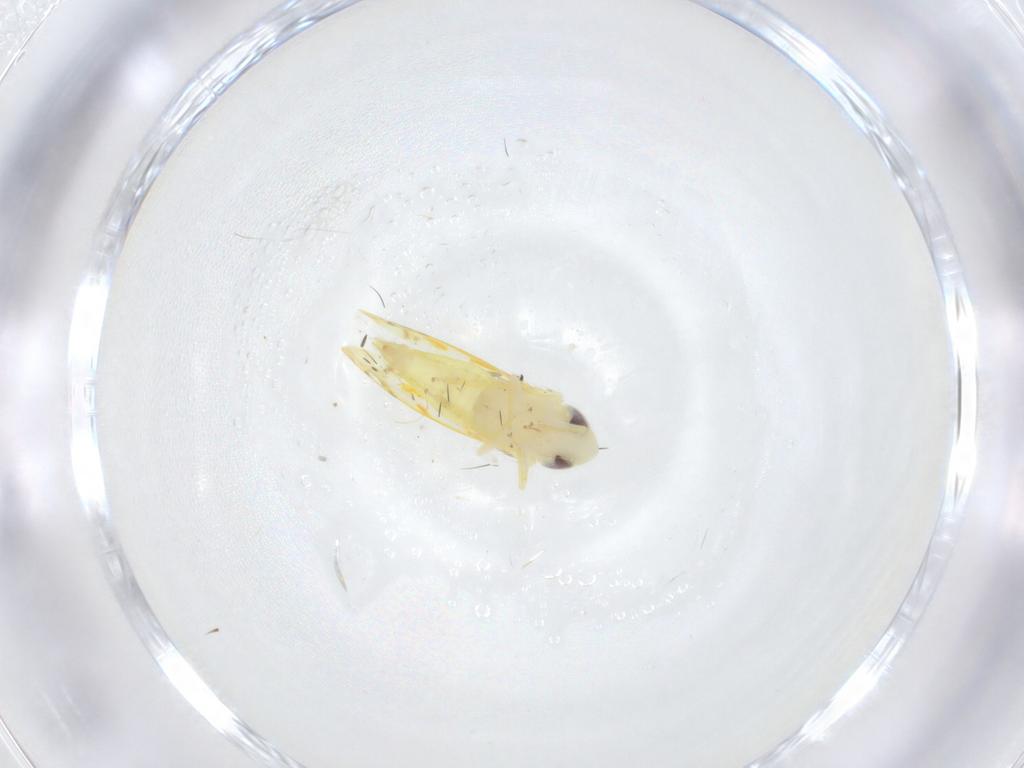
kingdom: Animalia
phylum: Arthropoda
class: Insecta
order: Hemiptera
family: Cicadellidae
